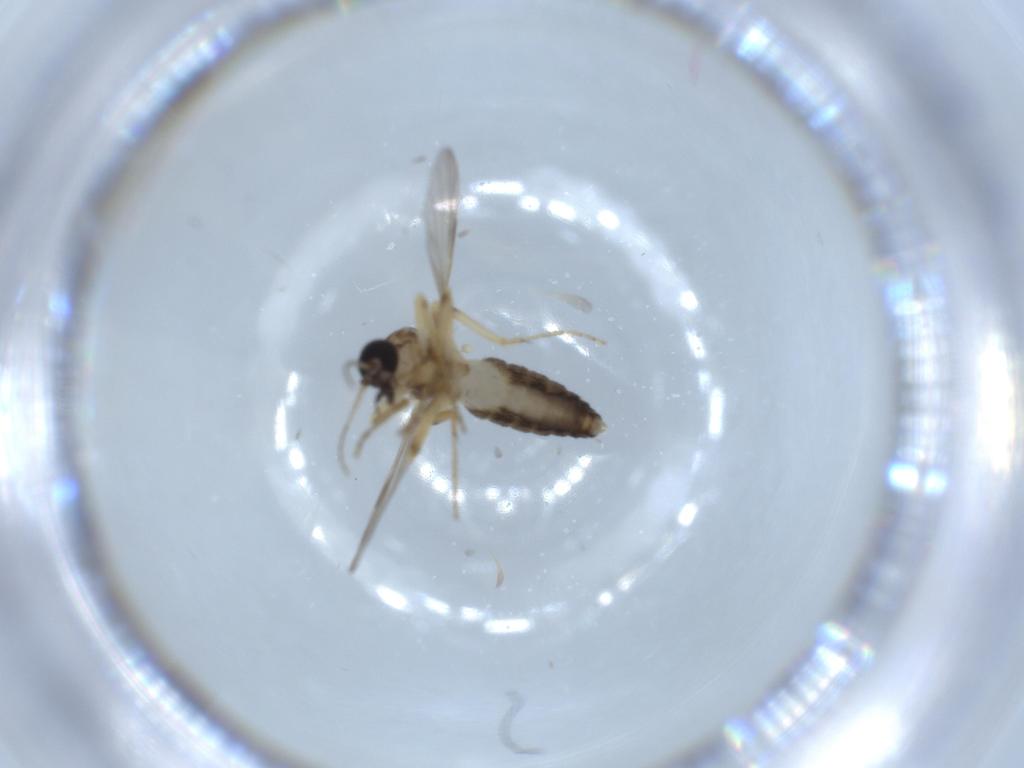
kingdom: Animalia
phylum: Arthropoda
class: Insecta
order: Diptera
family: Ceratopogonidae
